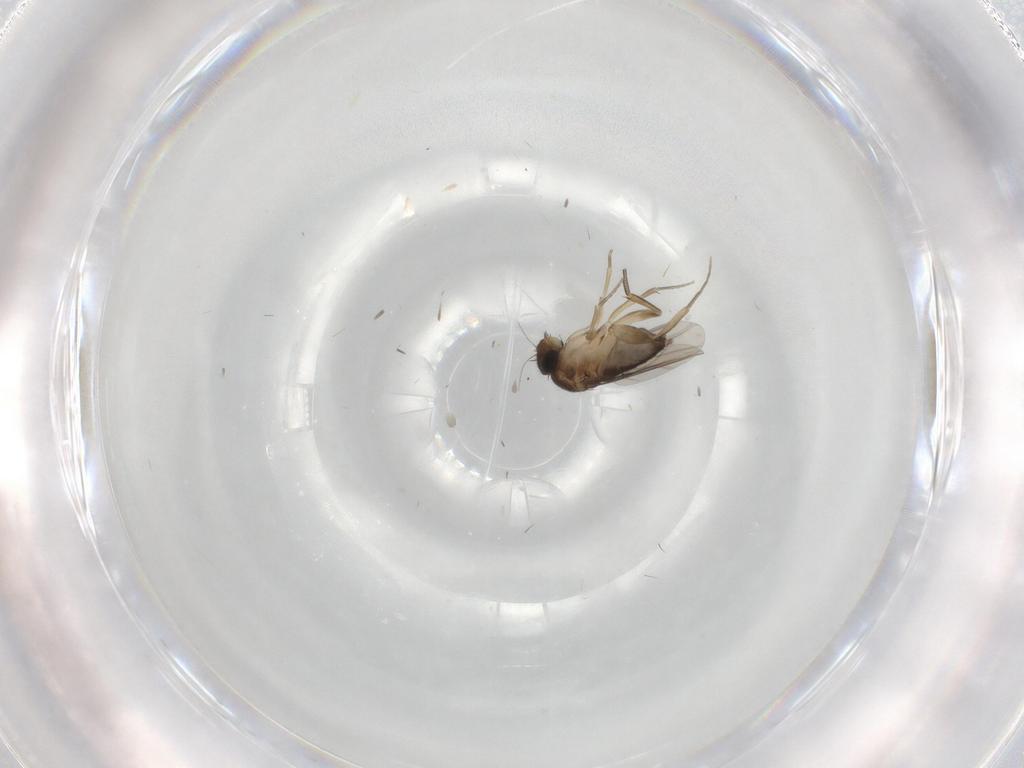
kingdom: Animalia
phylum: Arthropoda
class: Insecta
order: Diptera
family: Phoridae
